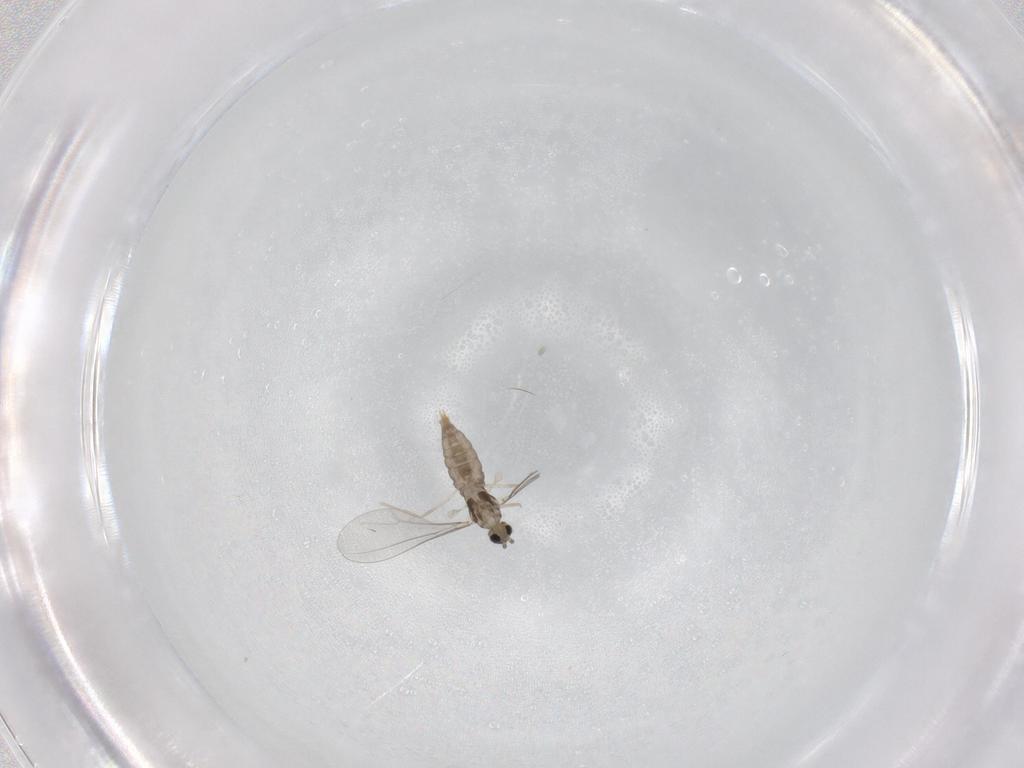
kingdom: Animalia
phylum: Arthropoda
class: Insecta
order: Diptera
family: Cecidomyiidae
